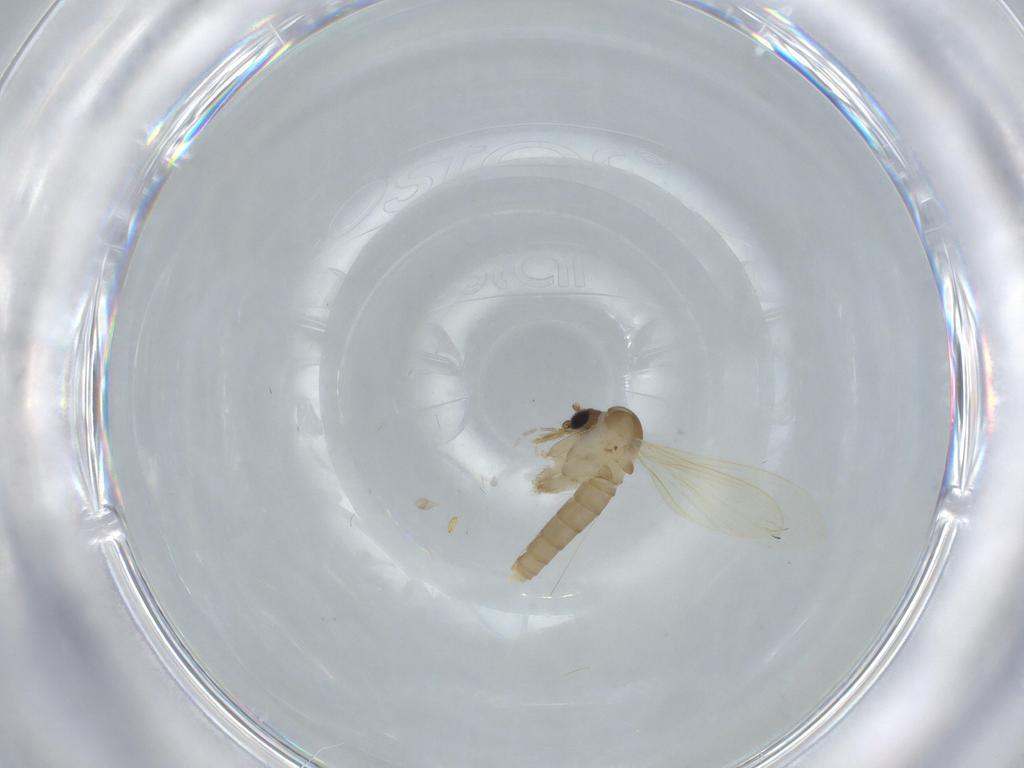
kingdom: Animalia
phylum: Arthropoda
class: Insecta
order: Diptera
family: Psychodidae
